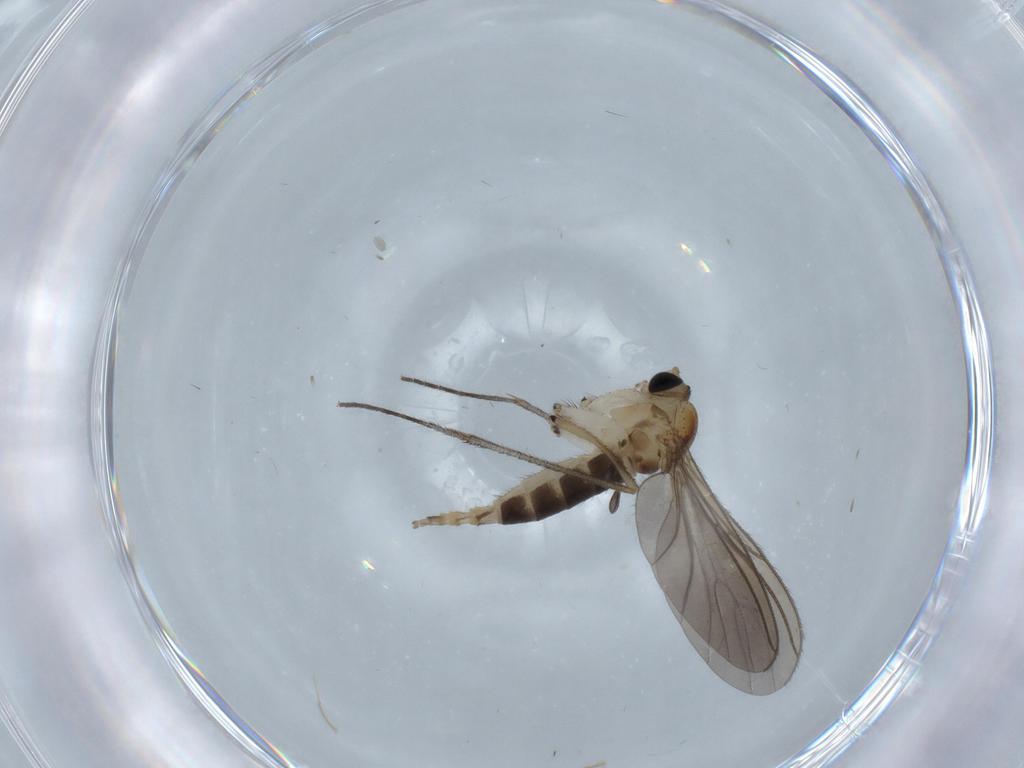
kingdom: Animalia
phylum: Arthropoda
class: Insecta
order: Diptera
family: Sciaridae
